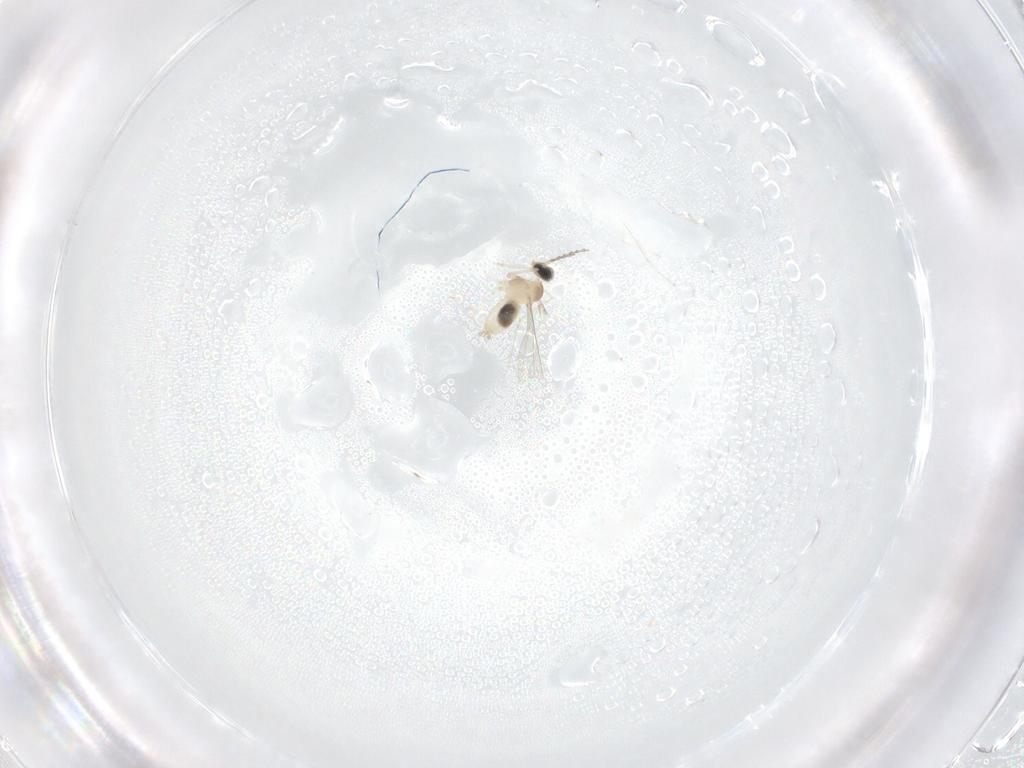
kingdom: Animalia
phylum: Arthropoda
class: Insecta
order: Diptera
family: Cecidomyiidae
